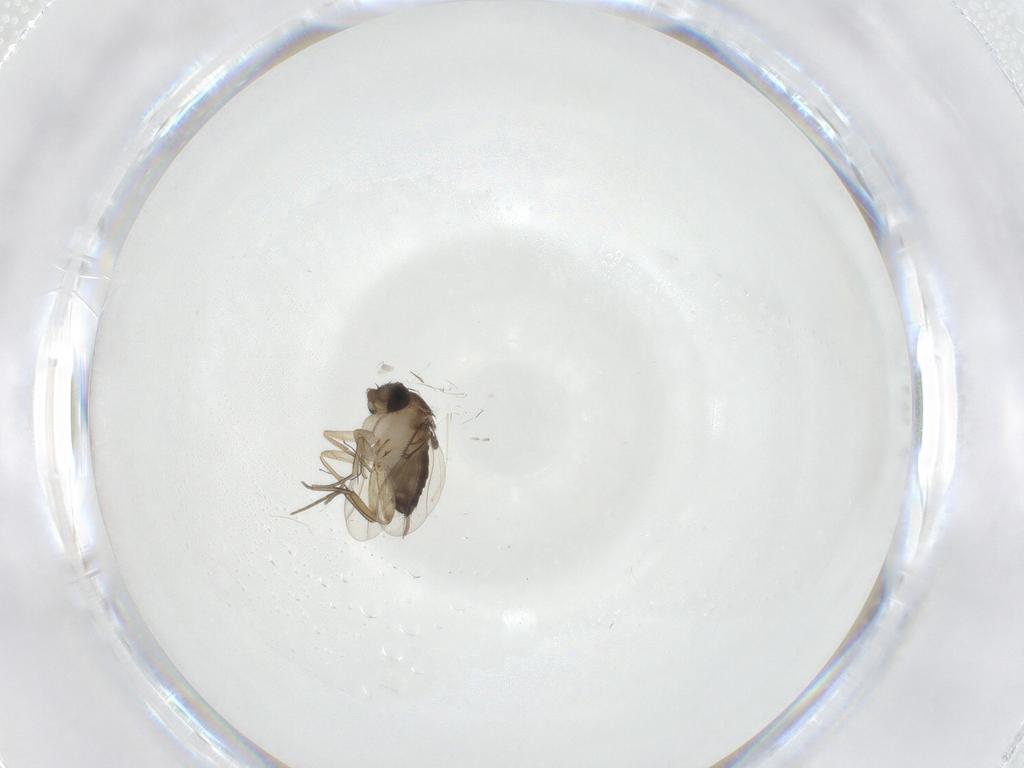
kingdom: Animalia
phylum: Arthropoda
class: Insecta
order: Diptera
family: Cecidomyiidae
